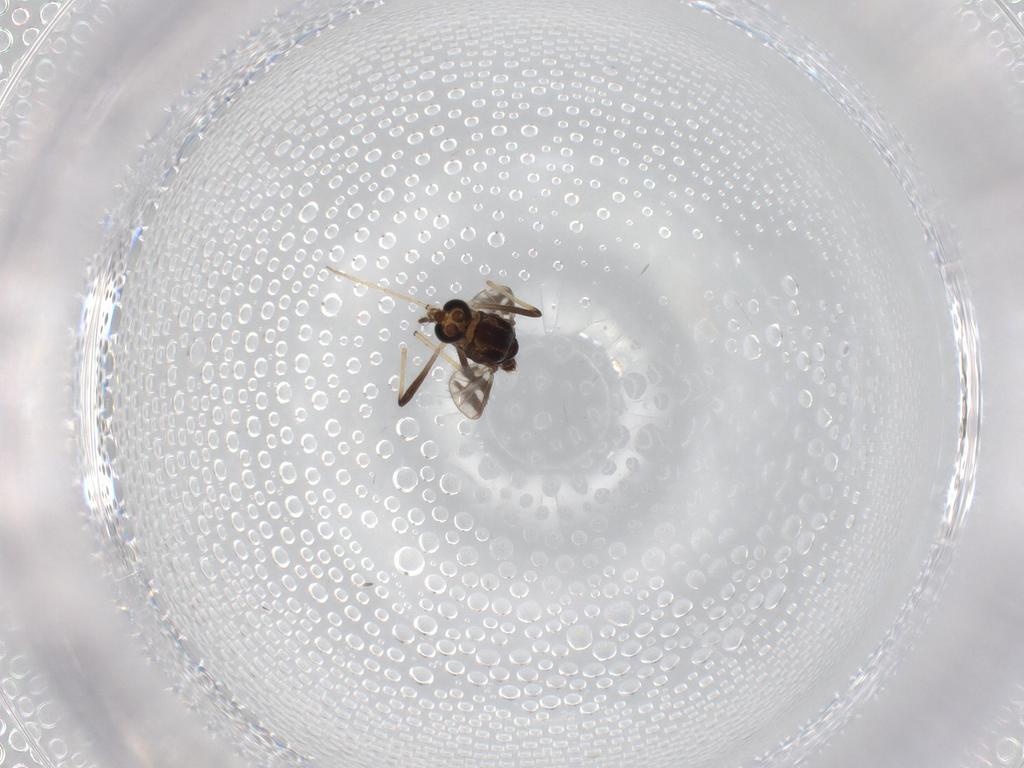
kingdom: Animalia
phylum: Arthropoda
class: Insecta
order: Diptera
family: Chironomidae
